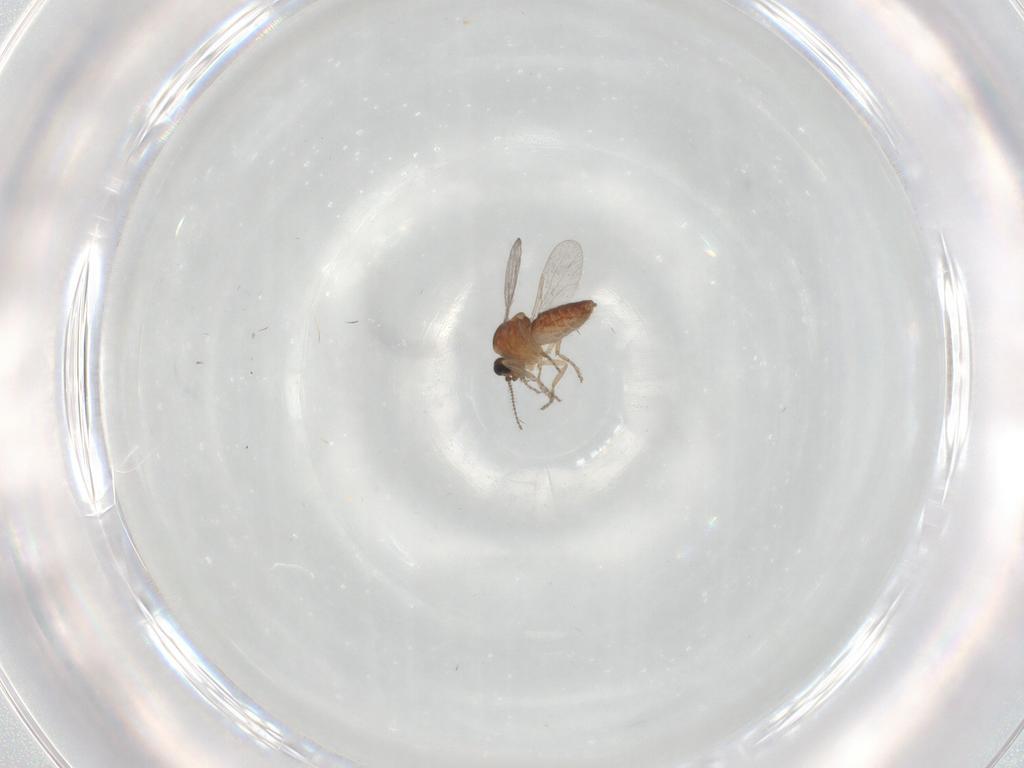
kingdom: Animalia
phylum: Arthropoda
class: Insecta
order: Diptera
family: Ceratopogonidae
